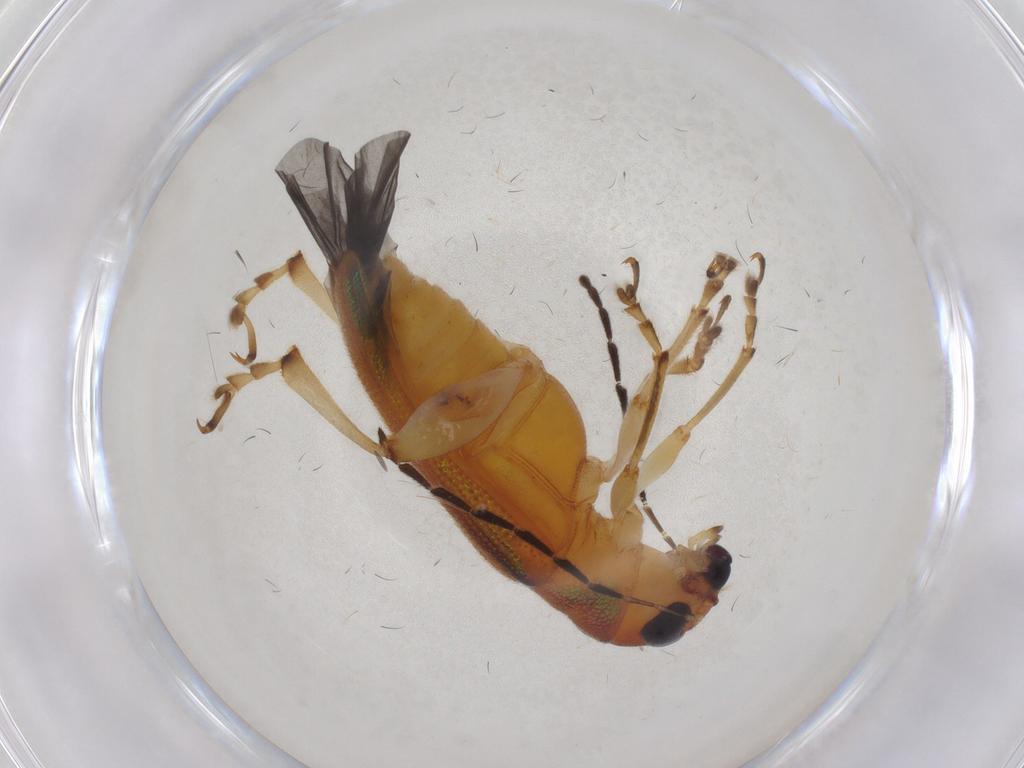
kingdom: Animalia
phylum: Arthropoda
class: Insecta
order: Coleoptera
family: Chrysomelidae
